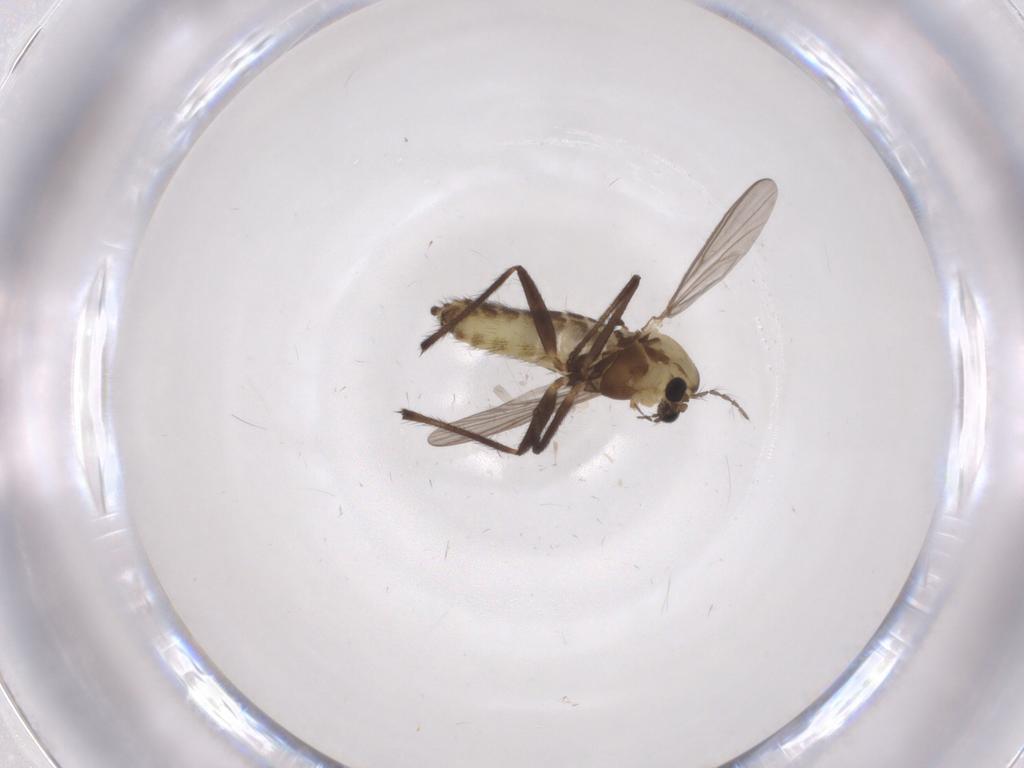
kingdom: Animalia
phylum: Arthropoda
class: Insecta
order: Diptera
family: Chironomidae
